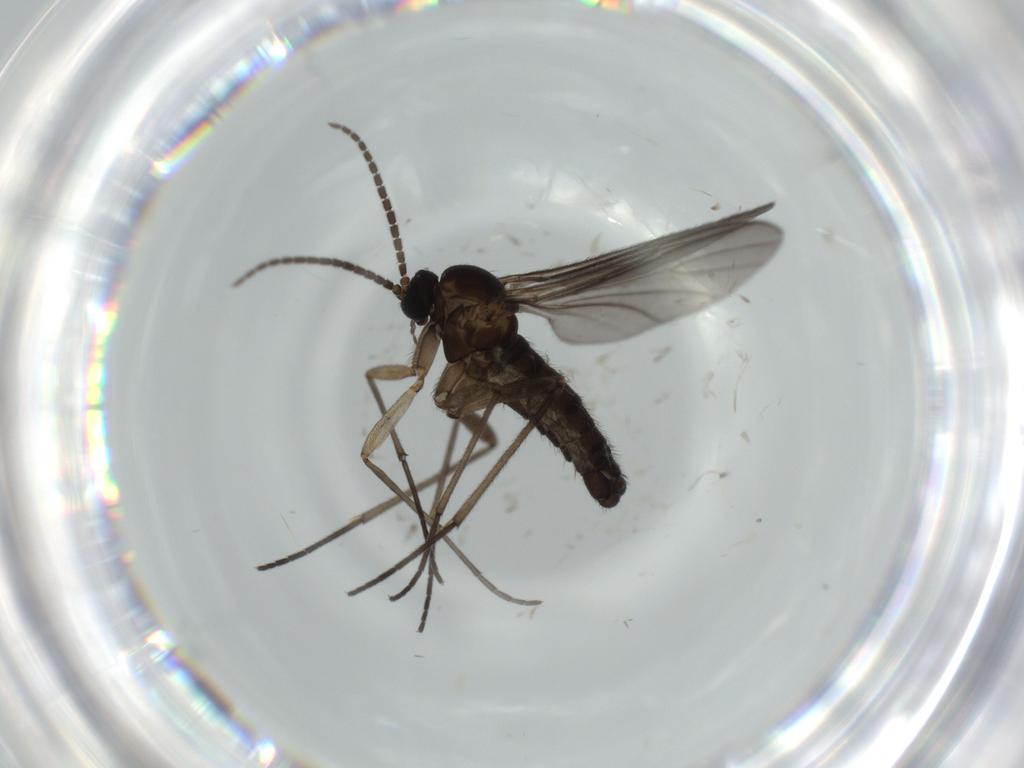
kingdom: Animalia
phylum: Arthropoda
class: Insecta
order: Diptera
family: Sciaridae
